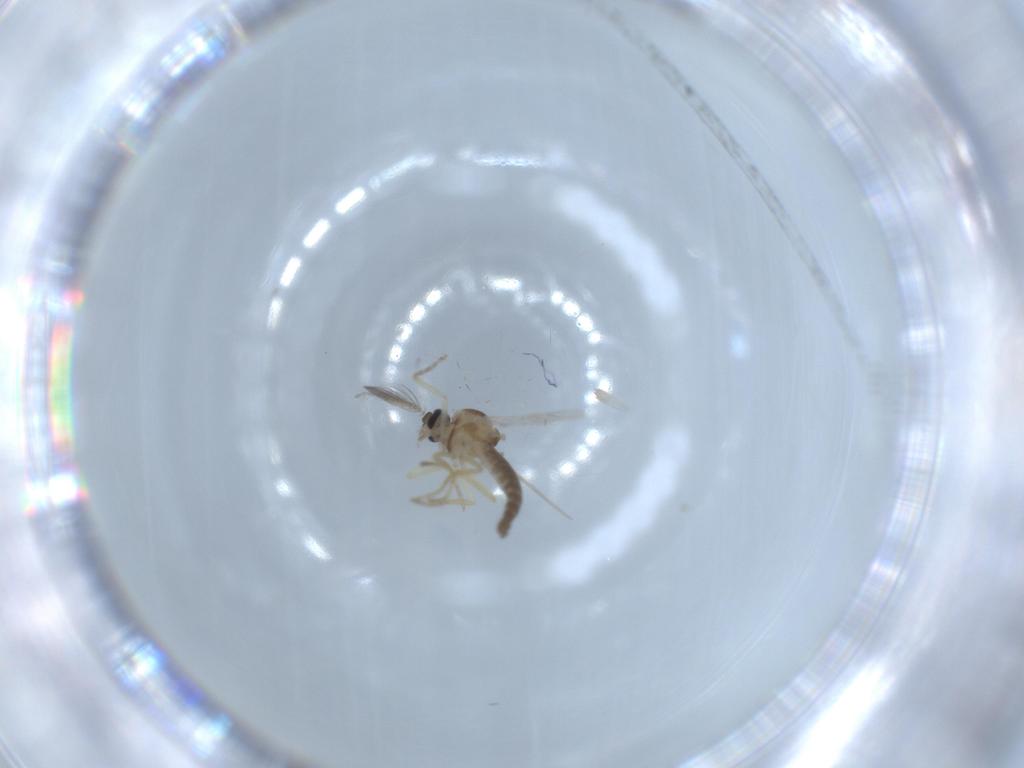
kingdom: Animalia
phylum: Arthropoda
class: Insecta
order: Diptera
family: Ceratopogonidae
